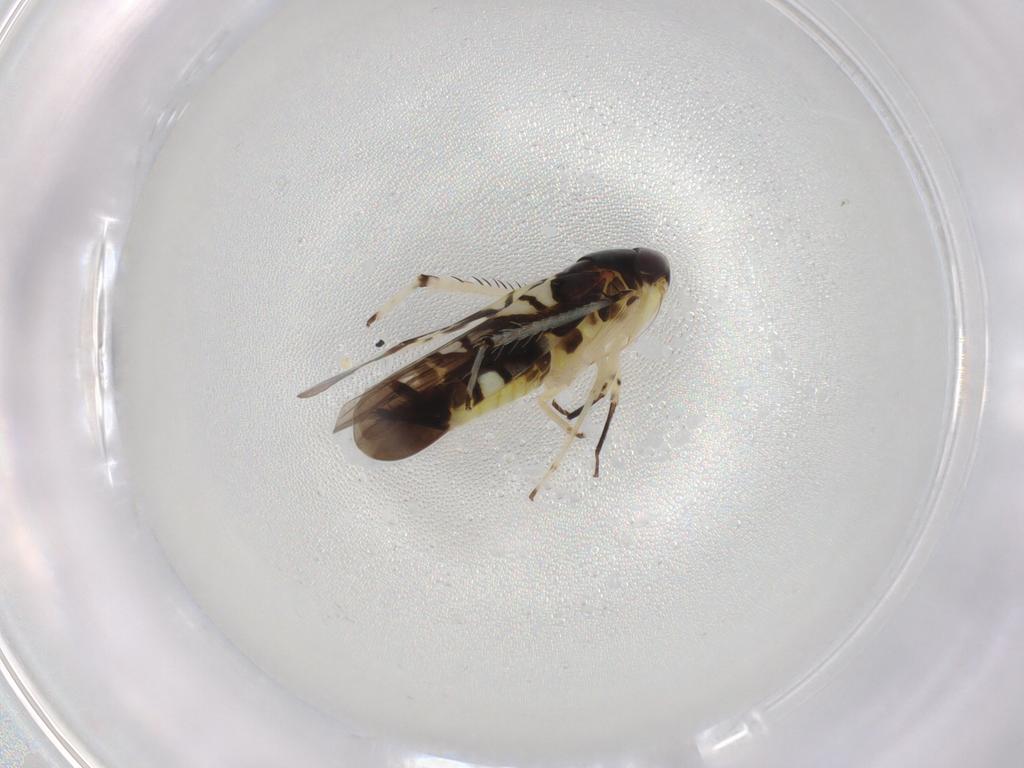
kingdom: Animalia
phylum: Arthropoda
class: Insecta
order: Hemiptera
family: Cicadellidae
